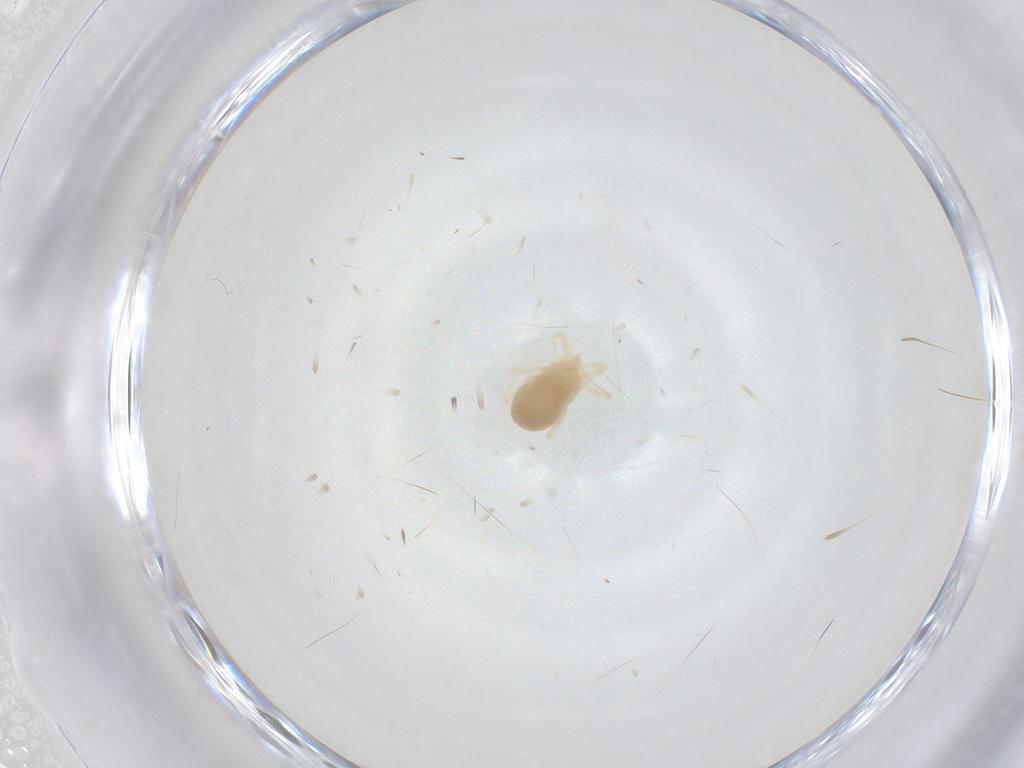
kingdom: Animalia
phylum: Arthropoda
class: Arachnida
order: Trombidiformes
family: Anystidae
